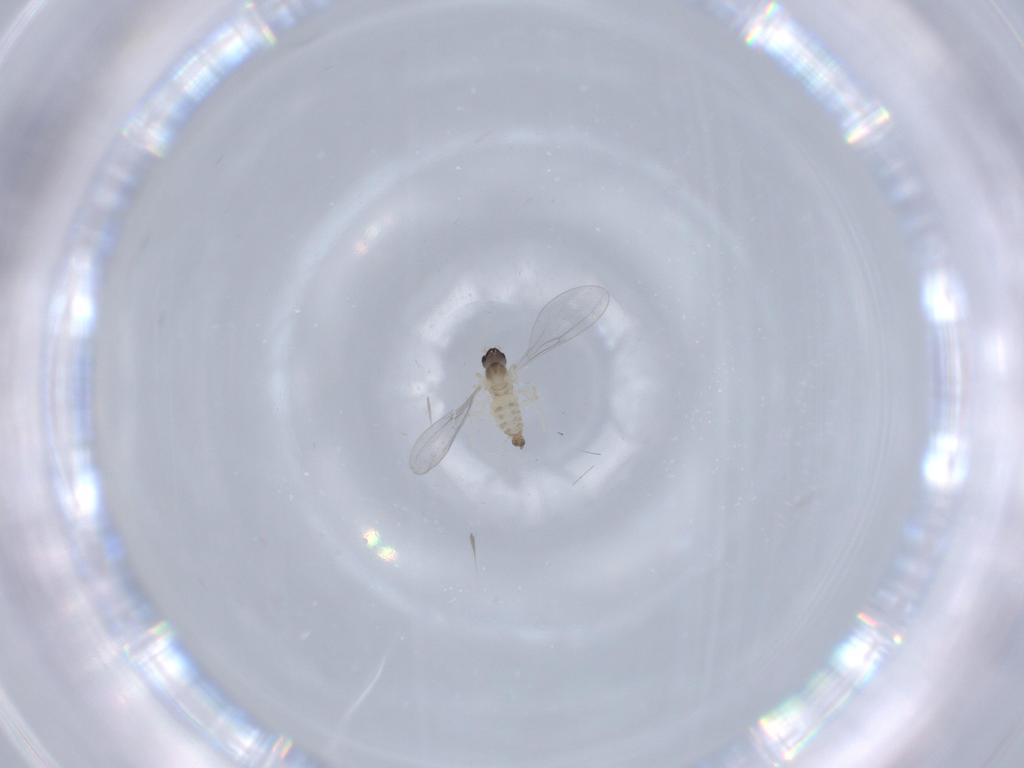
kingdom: Animalia
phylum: Arthropoda
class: Insecta
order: Diptera
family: Cecidomyiidae
